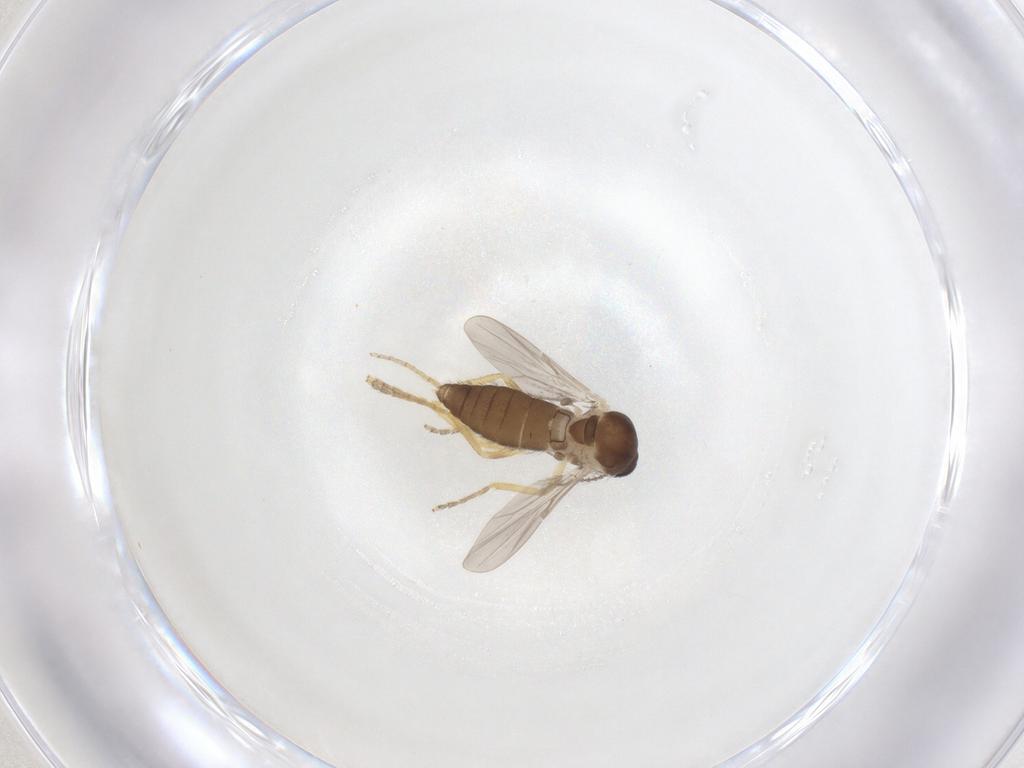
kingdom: Animalia
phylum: Arthropoda
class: Insecta
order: Diptera
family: Ceratopogonidae
